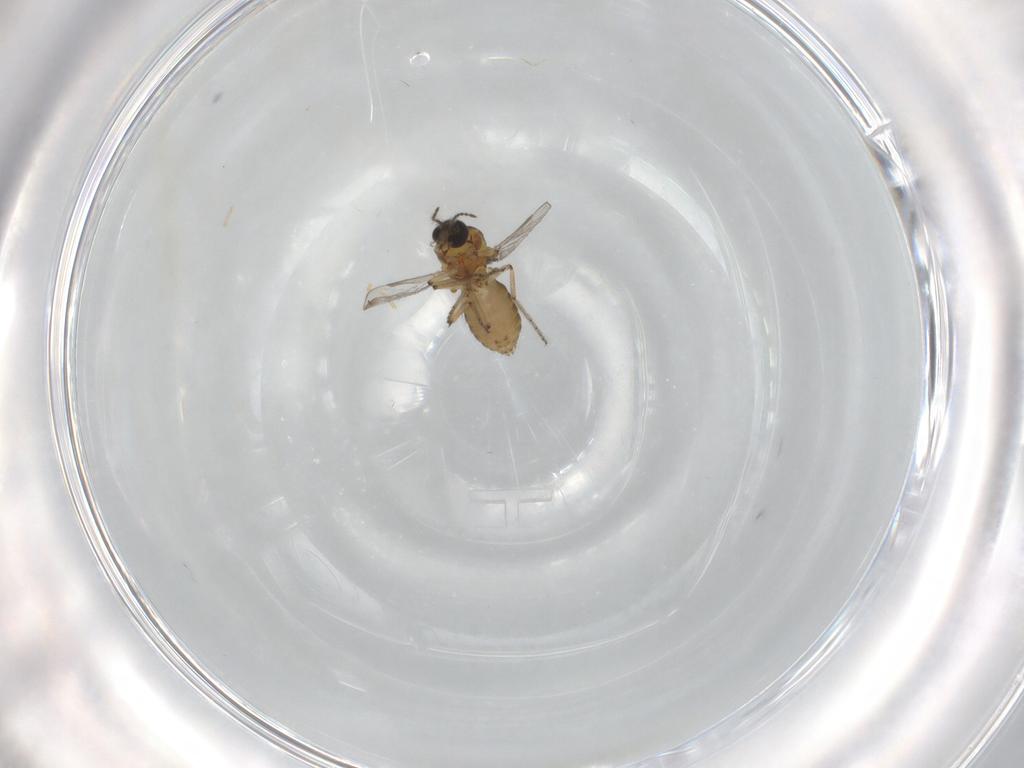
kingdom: Animalia
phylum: Arthropoda
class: Insecta
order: Diptera
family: Ceratopogonidae
